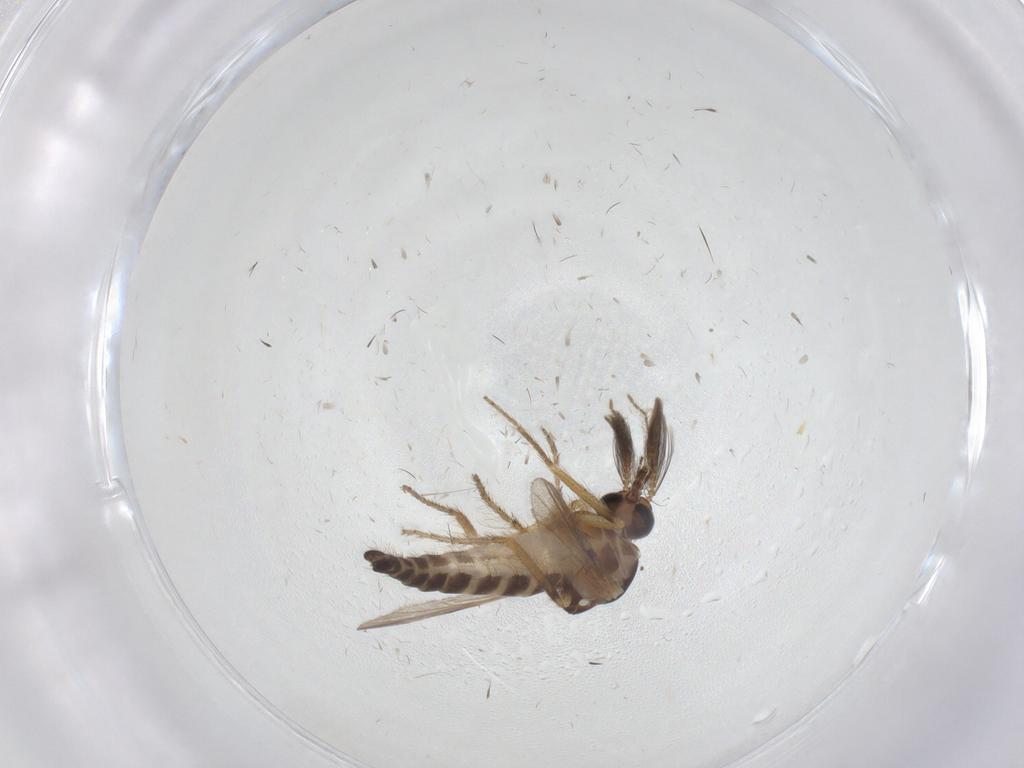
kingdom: Animalia
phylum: Arthropoda
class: Insecta
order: Diptera
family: Ceratopogonidae
